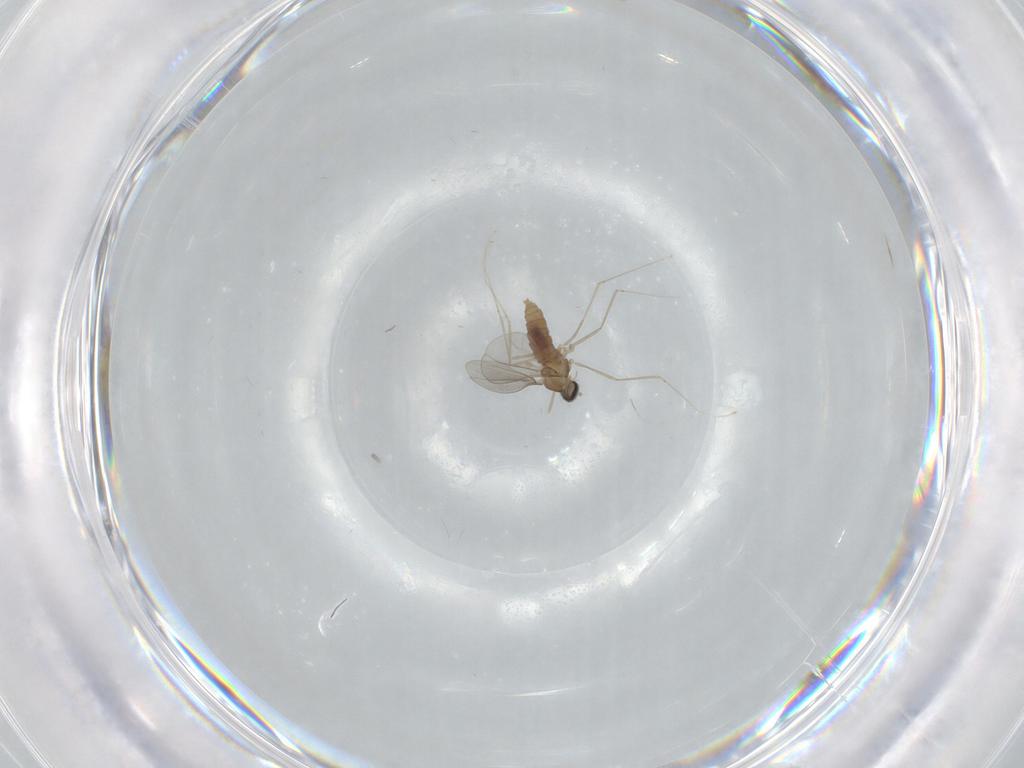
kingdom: Animalia
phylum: Arthropoda
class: Insecta
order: Diptera
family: Cecidomyiidae
